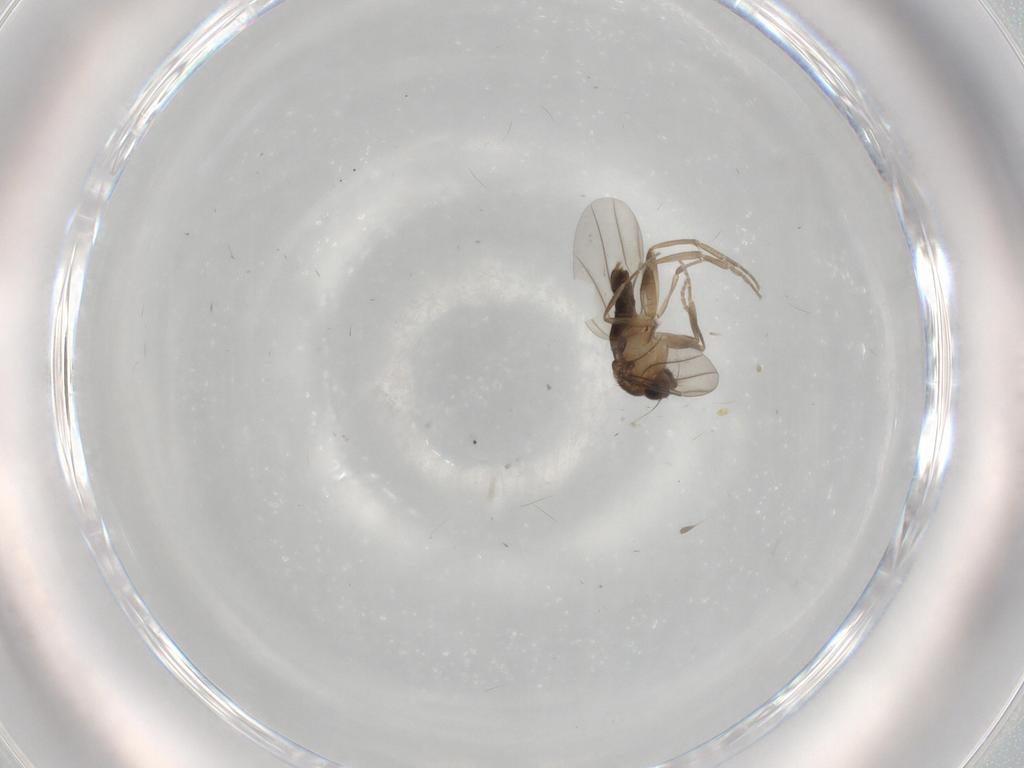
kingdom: Animalia
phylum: Arthropoda
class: Insecta
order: Diptera
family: Phoridae
